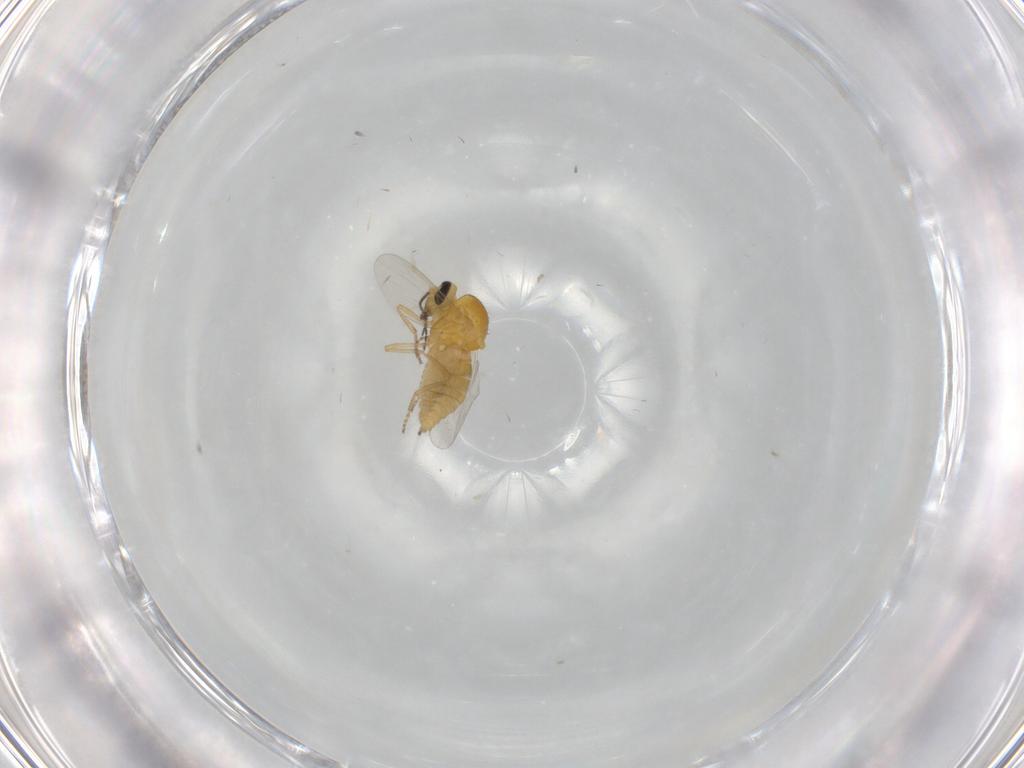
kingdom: Animalia
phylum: Arthropoda
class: Insecta
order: Diptera
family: Ceratopogonidae
